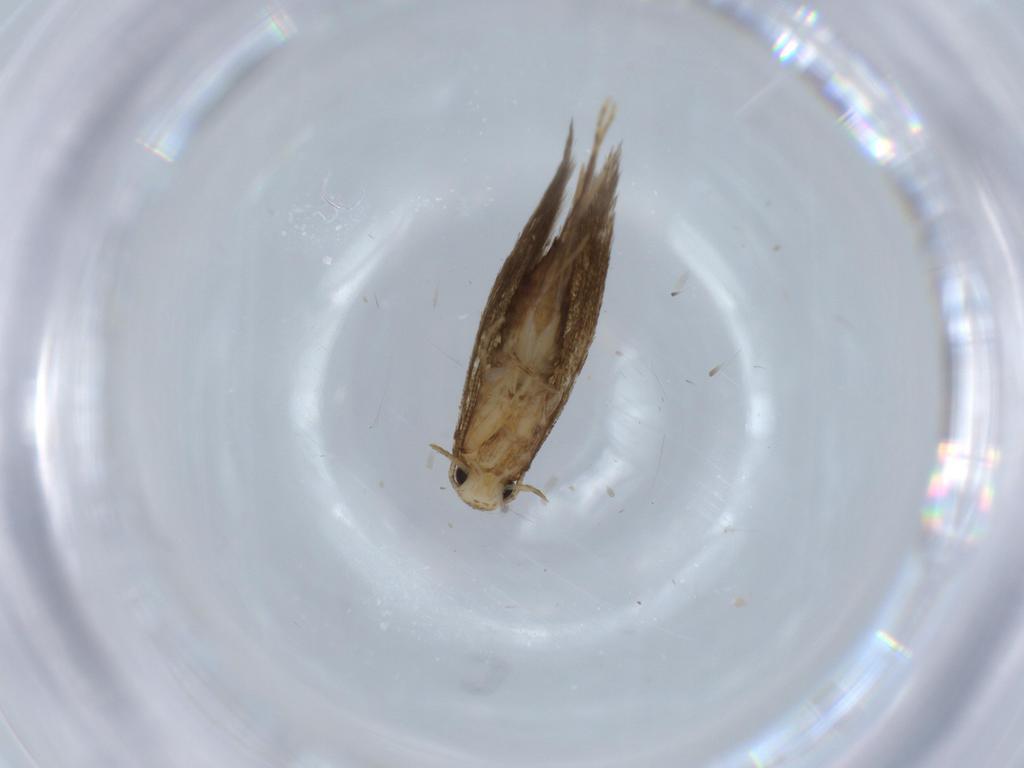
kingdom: Animalia
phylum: Arthropoda
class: Insecta
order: Lepidoptera
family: Tineidae
